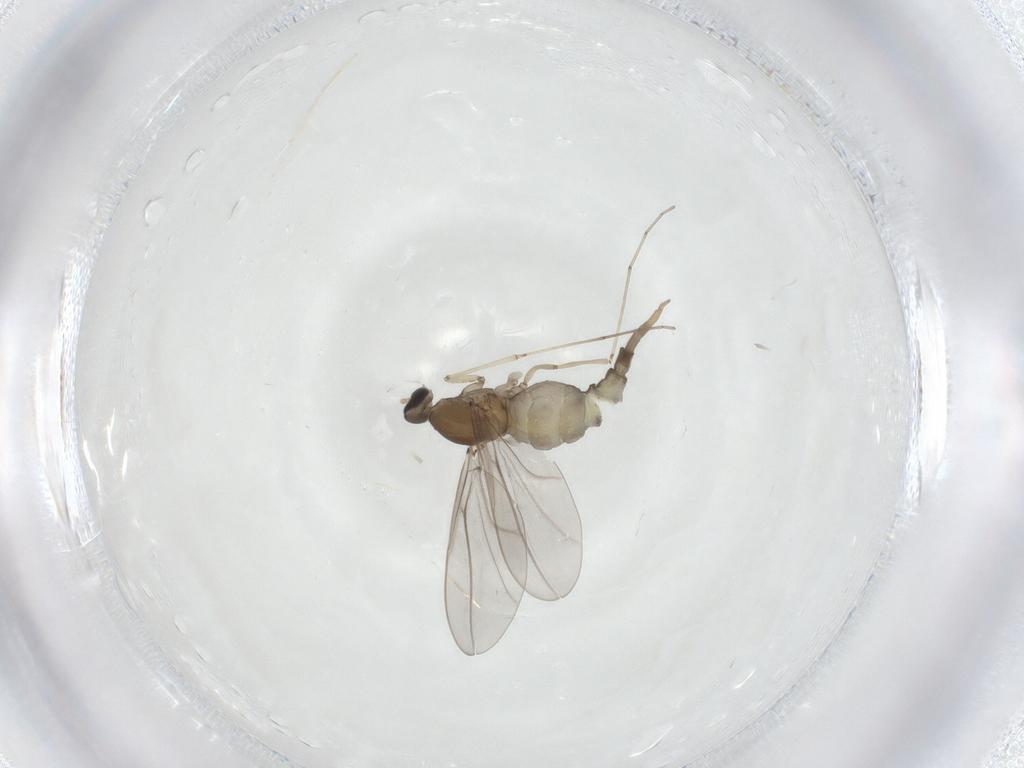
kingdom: Animalia
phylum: Arthropoda
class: Insecta
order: Diptera
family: Cecidomyiidae
